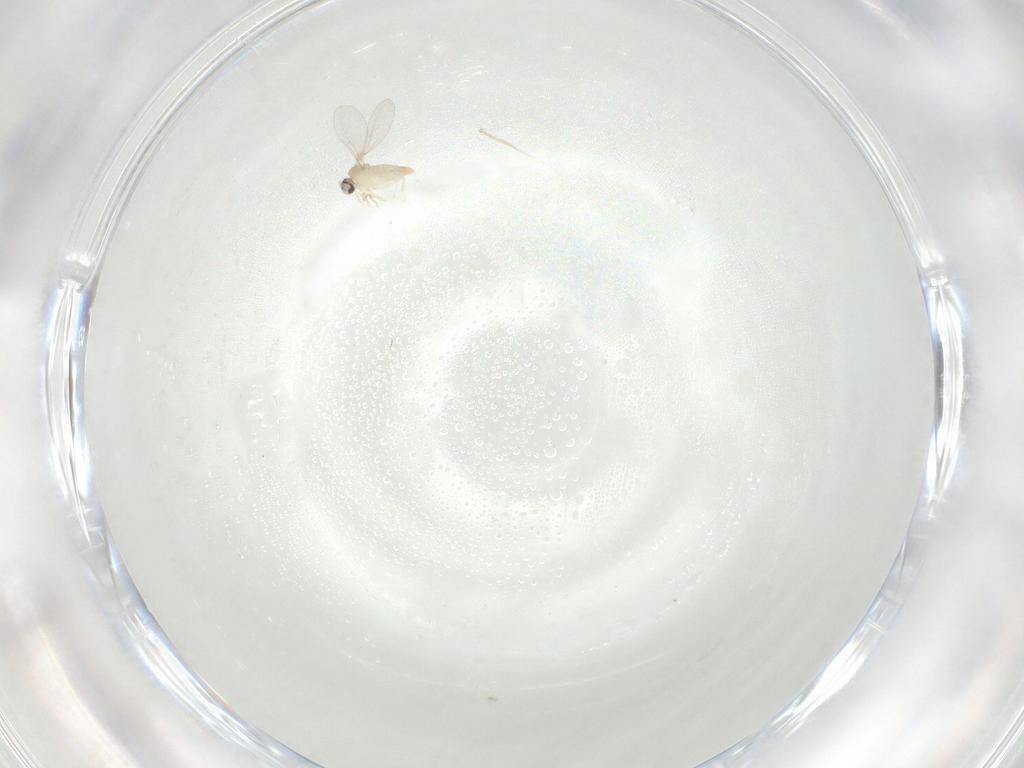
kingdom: Animalia
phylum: Arthropoda
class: Insecta
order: Diptera
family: Cecidomyiidae
